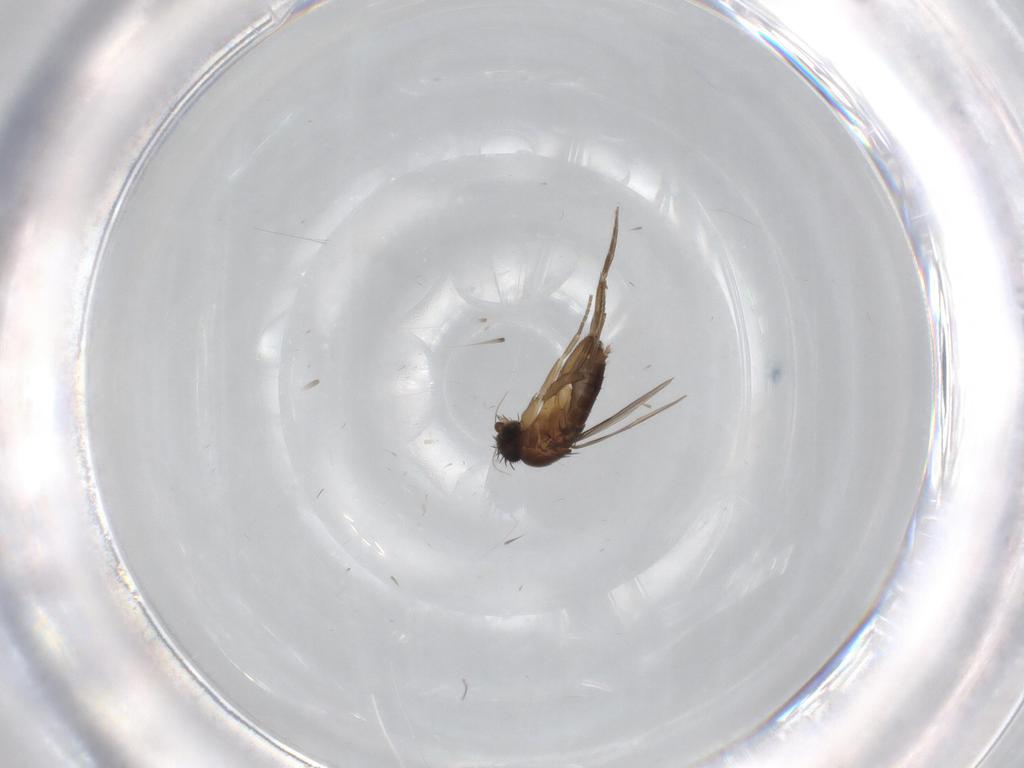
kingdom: Animalia
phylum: Arthropoda
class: Insecta
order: Diptera
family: Phoridae
